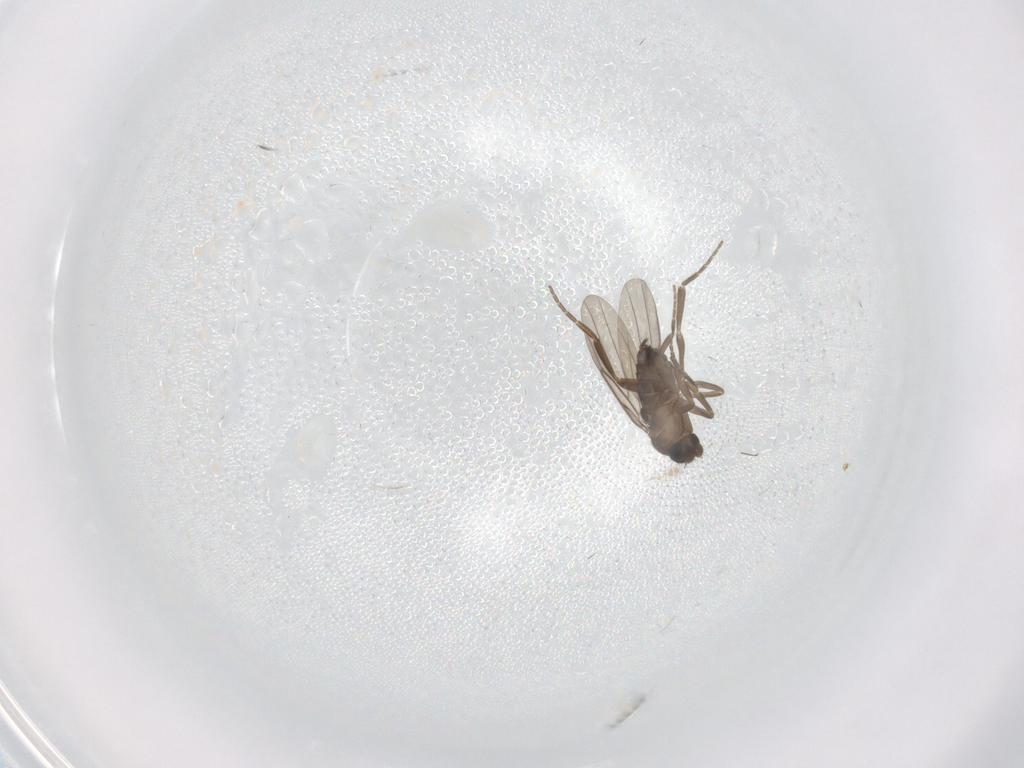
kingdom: Animalia
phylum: Arthropoda
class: Insecta
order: Diptera
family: Phoridae
